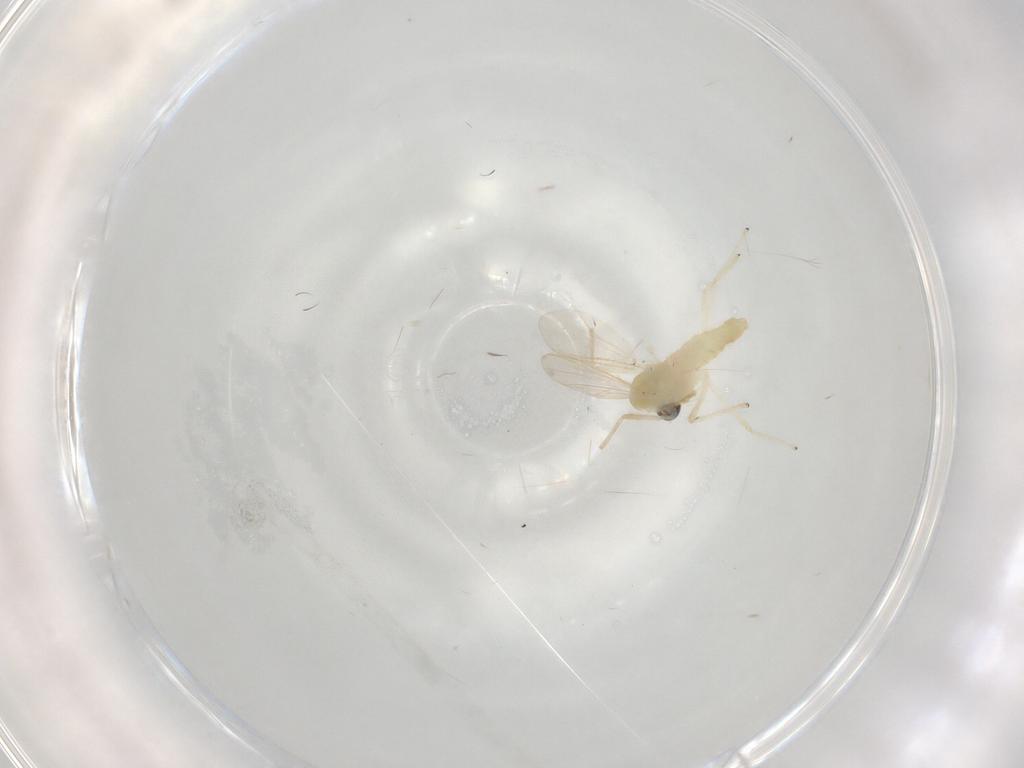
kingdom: Animalia
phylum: Arthropoda
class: Insecta
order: Diptera
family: Chironomidae
